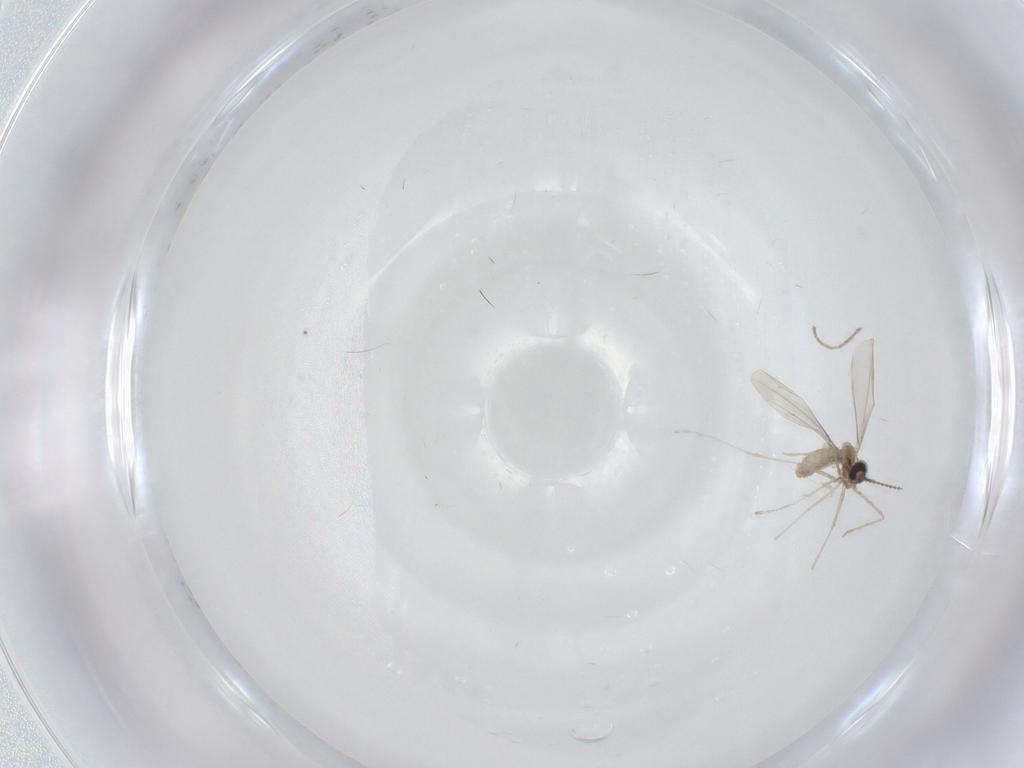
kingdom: Animalia
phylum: Arthropoda
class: Insecta
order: Diptera
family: Cecidomyiidae
